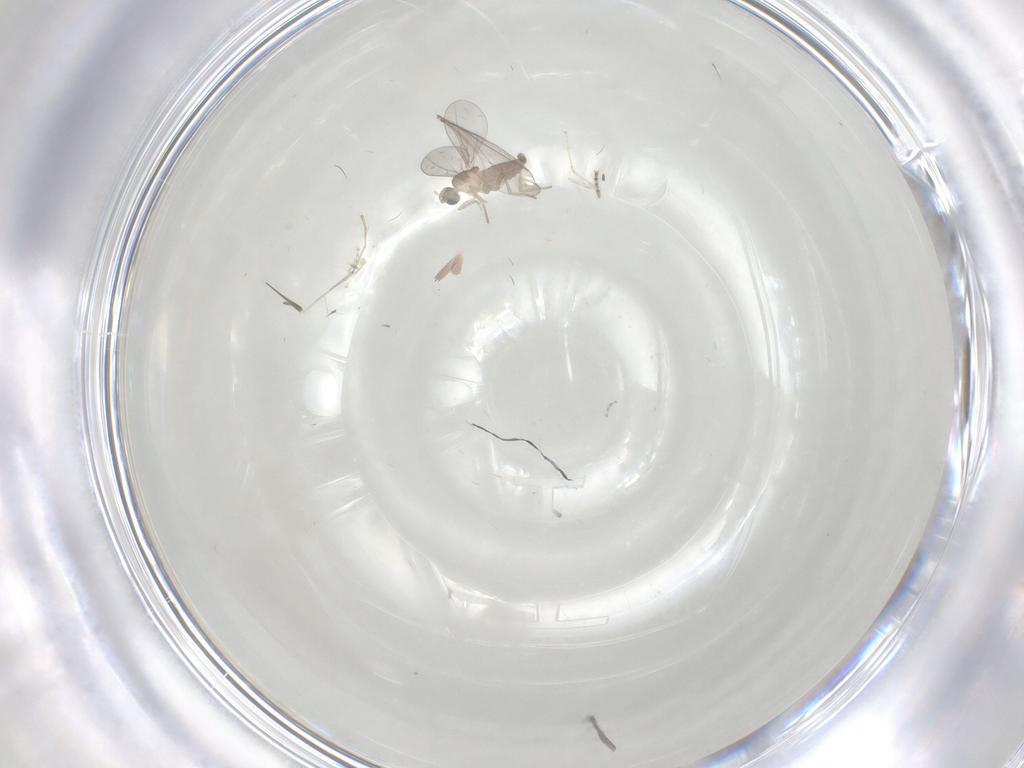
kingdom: Animalia
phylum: Arthropoda
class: Insecta
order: Diptera
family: Cecidomyiidae
